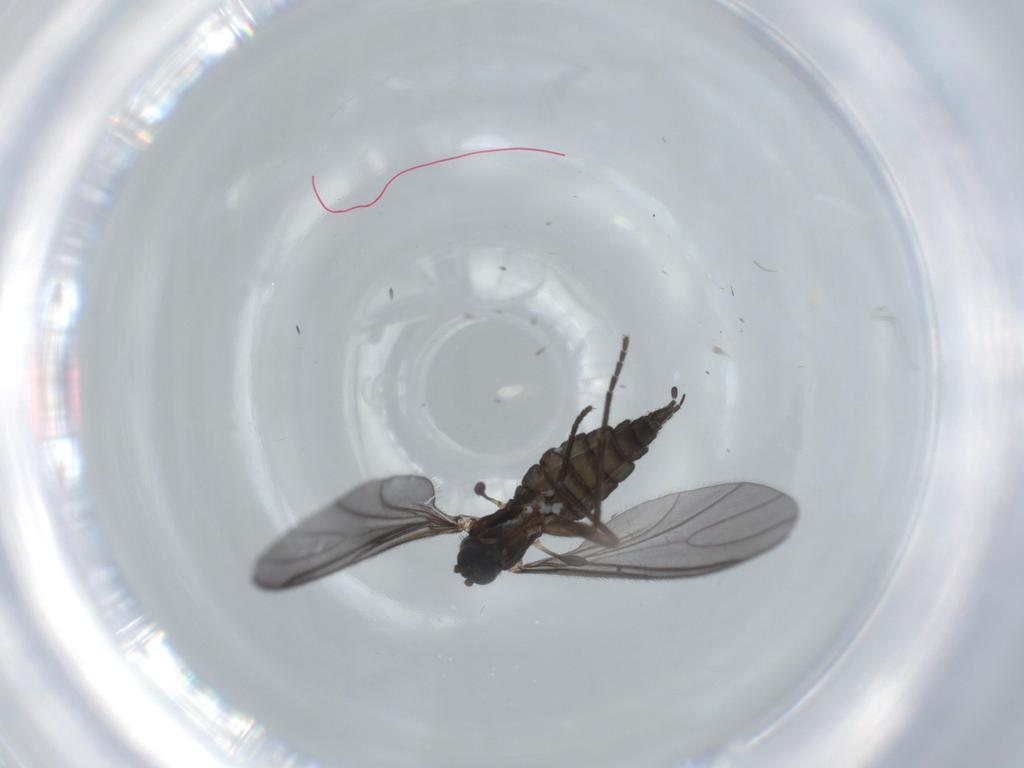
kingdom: Animalia
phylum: Arthropoda
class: Insecta
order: Diptera
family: Sciaridae
